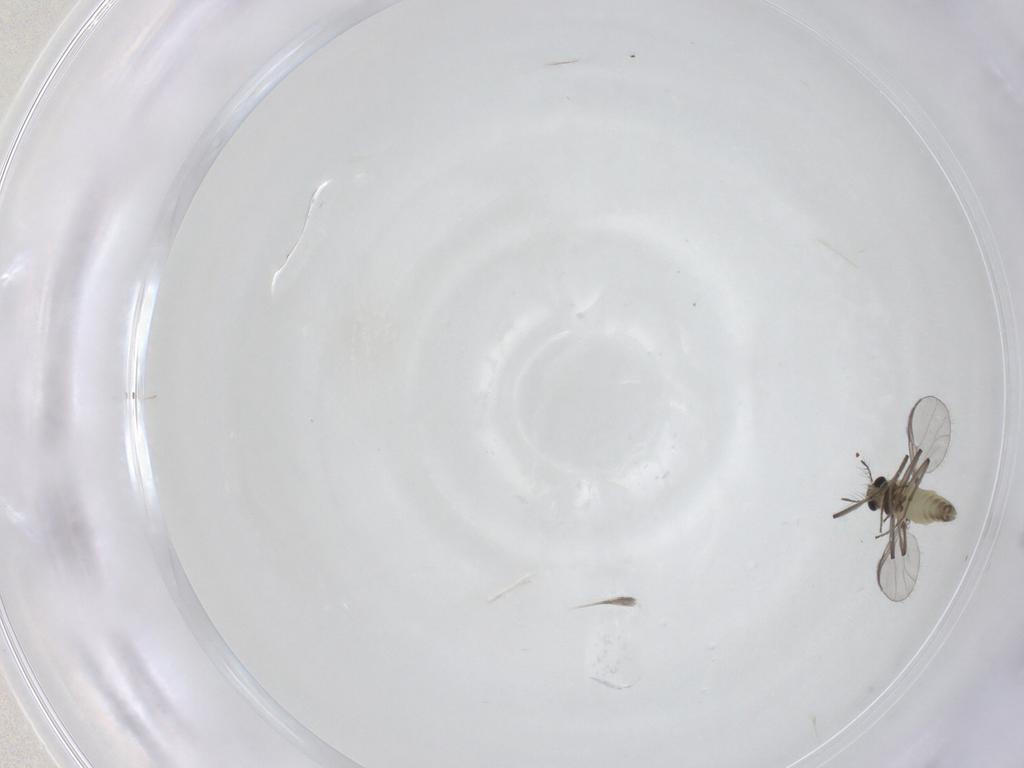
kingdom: Animalia
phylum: Arthropoda
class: Insecta
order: Diptera
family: Chironomidae
